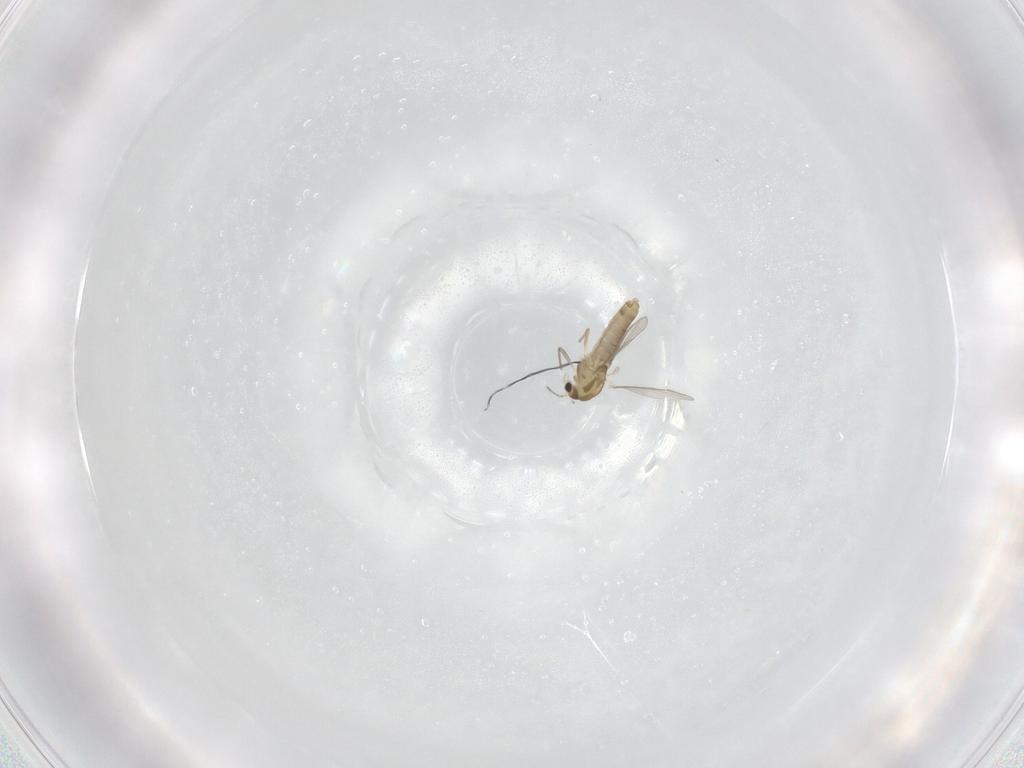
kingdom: Animalia
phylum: Arthropoda
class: Insecta
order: Diptera
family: Chironomidae
